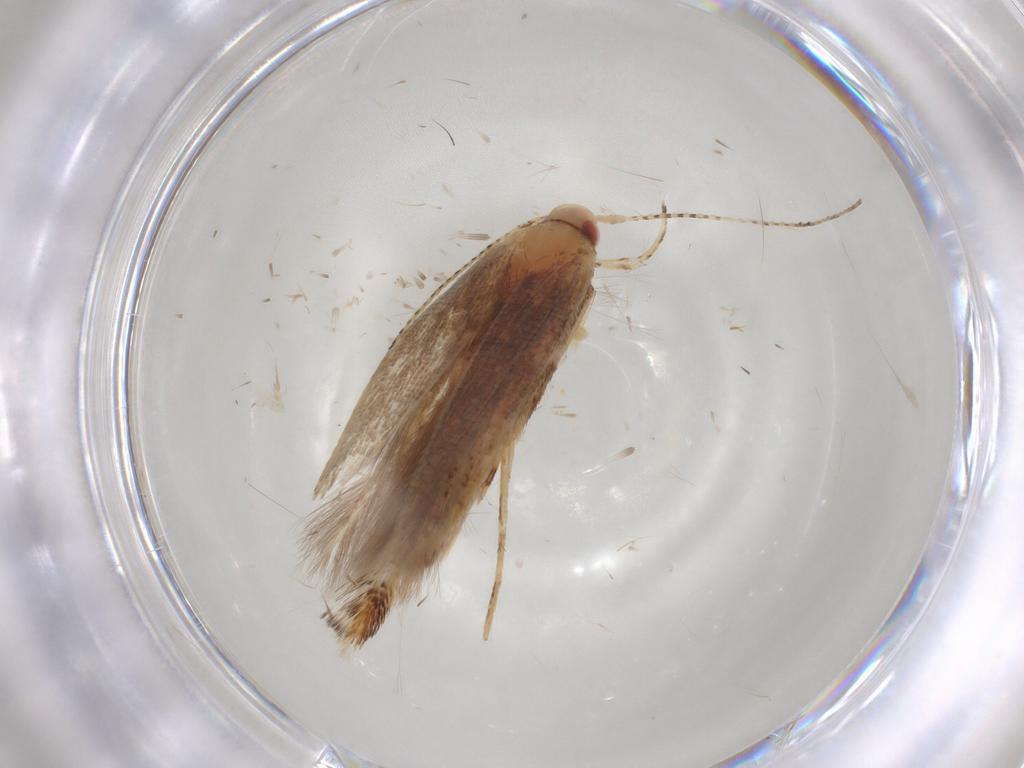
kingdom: Animalia
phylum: Arthropoda
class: Insecta
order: Lepidoptera
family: Cosmopterigidae
